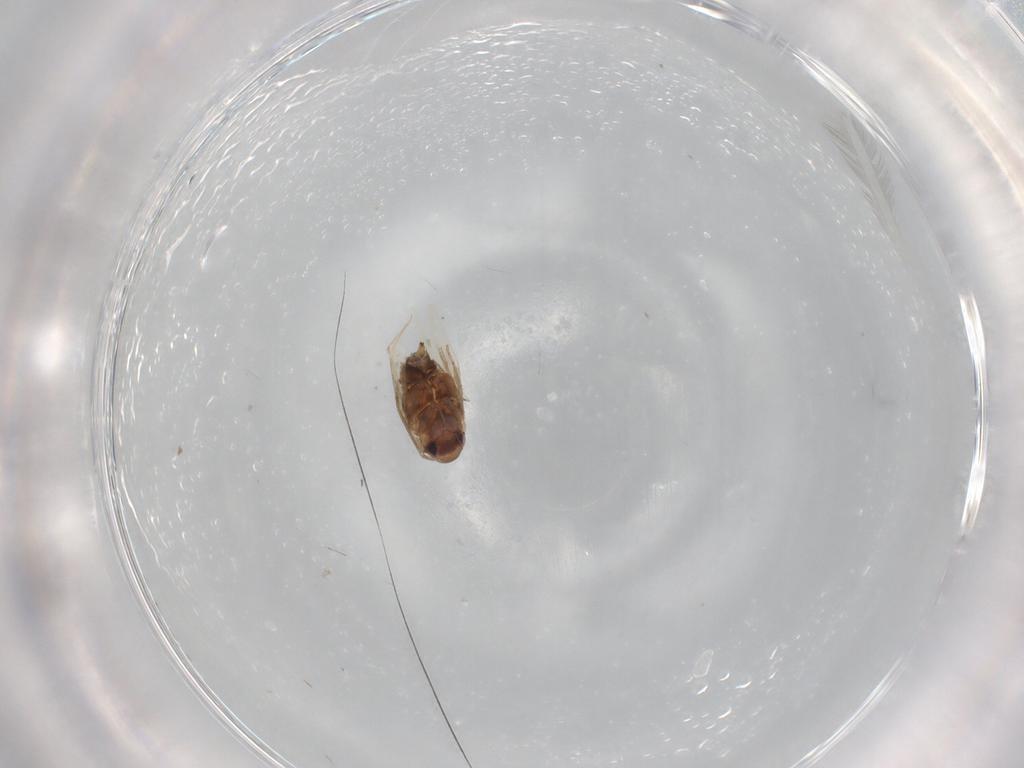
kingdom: Animalia
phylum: Arthropoda
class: Insecta
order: Lepidoptera
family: Nymphalidae
